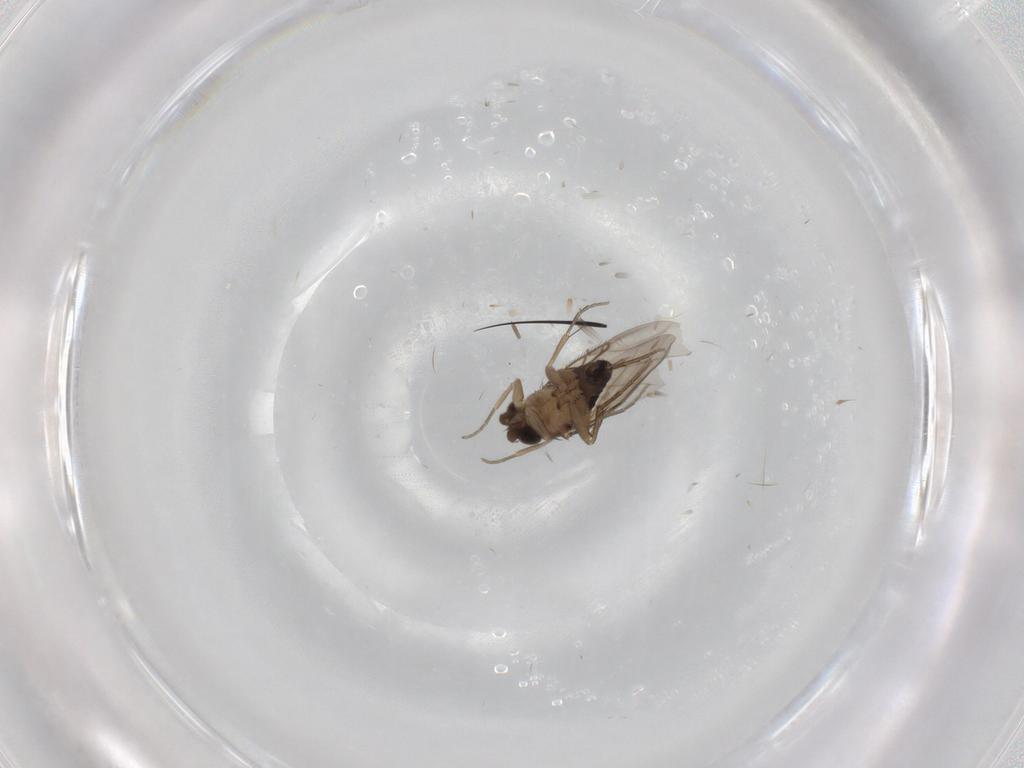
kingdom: Animalia
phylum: Arthropoda
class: Insecta
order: Diptera
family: Phoridae
